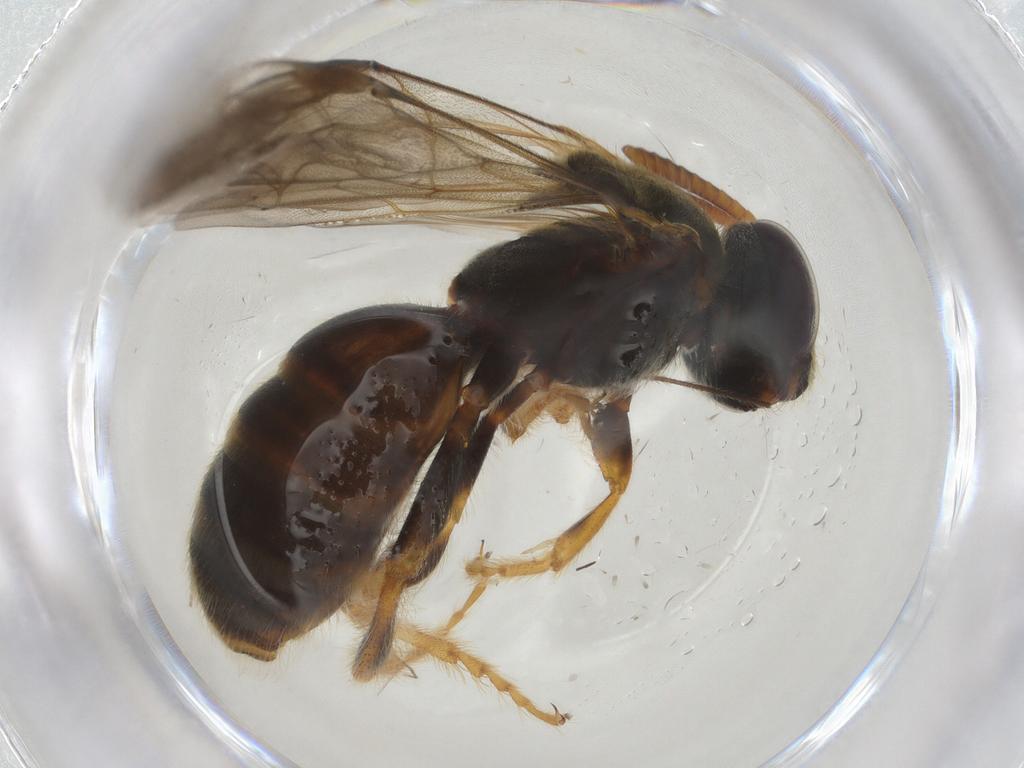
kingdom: Animalia
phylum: Arthropoda
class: Insecta
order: Hymenoptera
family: Halictidae
